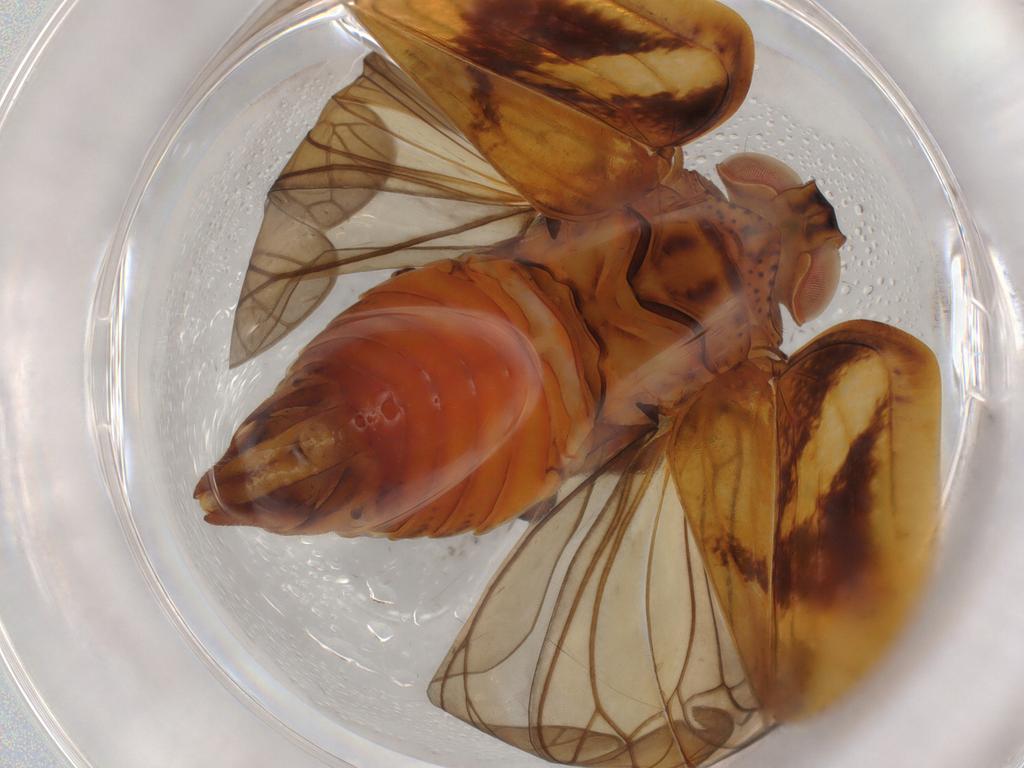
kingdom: Animalia
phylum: Arthropoda
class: Insecta
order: Hemiptera
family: Issidae
